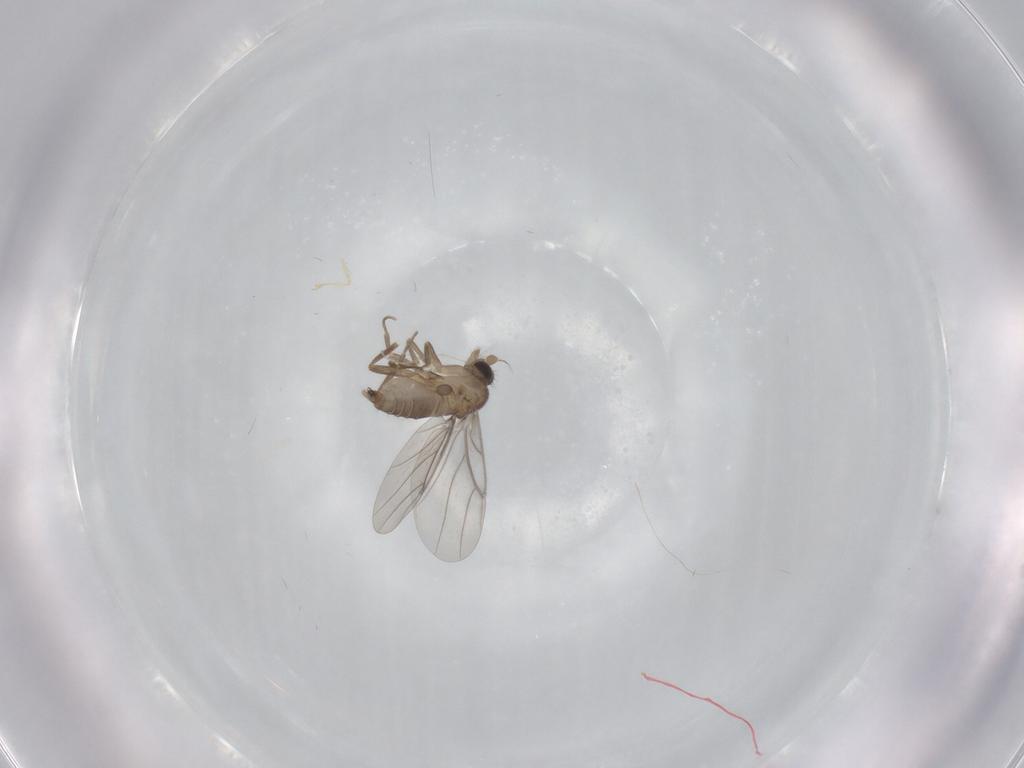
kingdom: Animalia
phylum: Arthropoda
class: Insecta
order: Diptera
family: Cecidomyiidae
